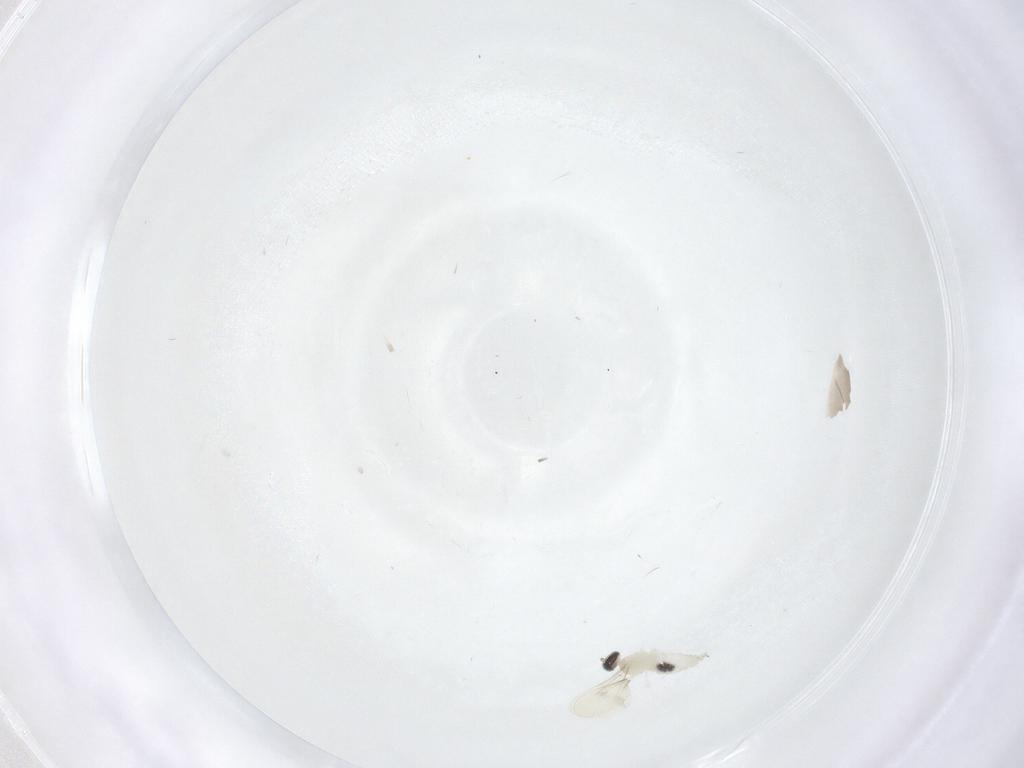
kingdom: Animalia
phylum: Arthropoda
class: Insecta
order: Diptera
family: Cecidomyiidae
